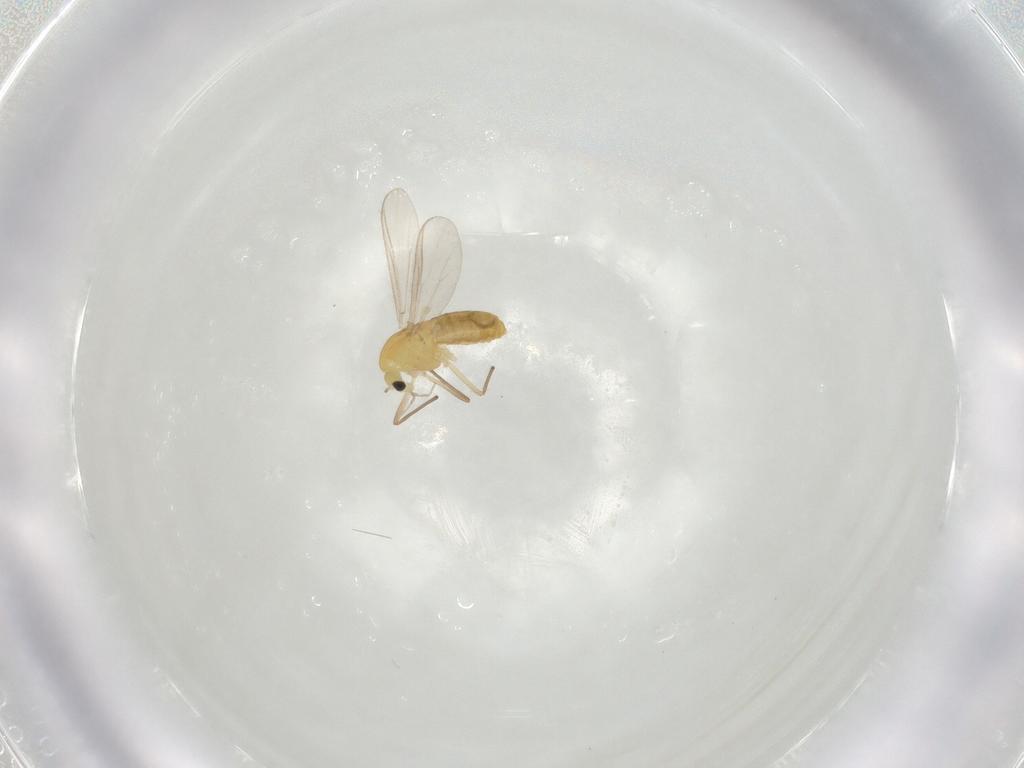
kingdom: Animalia
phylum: Arthropoda
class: Insecta
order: Diptera
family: Chironomidae
